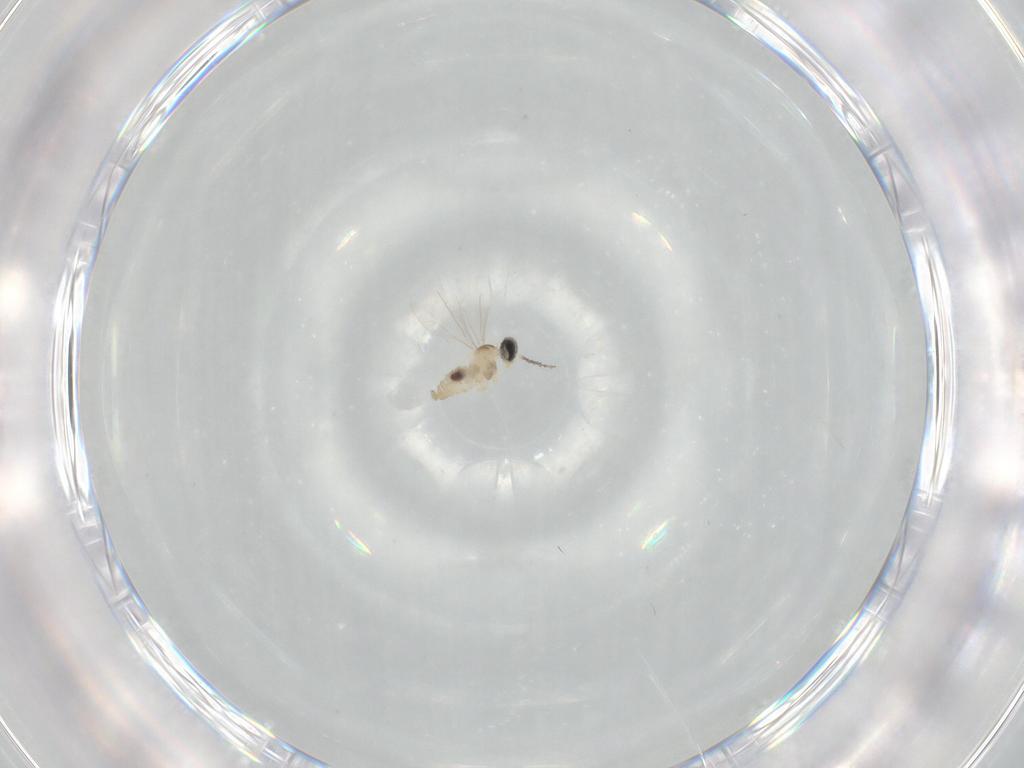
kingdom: Animalia
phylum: Arthropoda
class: Insecta
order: Diptera
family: Cecidomyiidae
